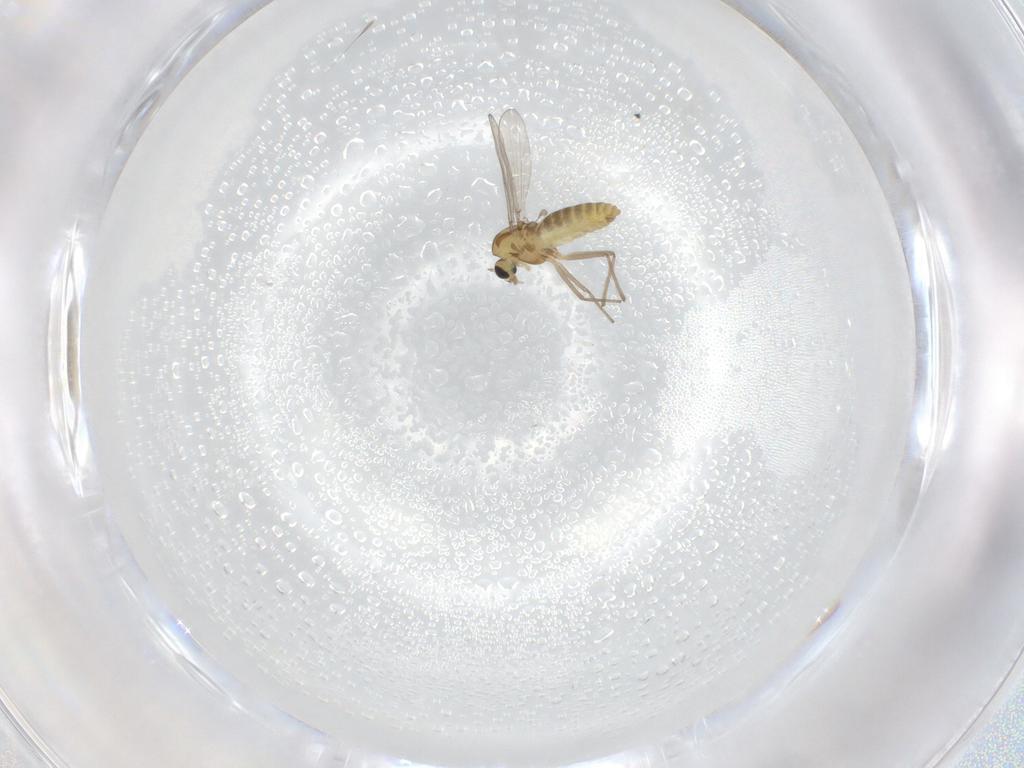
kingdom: Animalia
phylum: Arthropoda
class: Insecta
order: Diptera
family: Chironomidae
